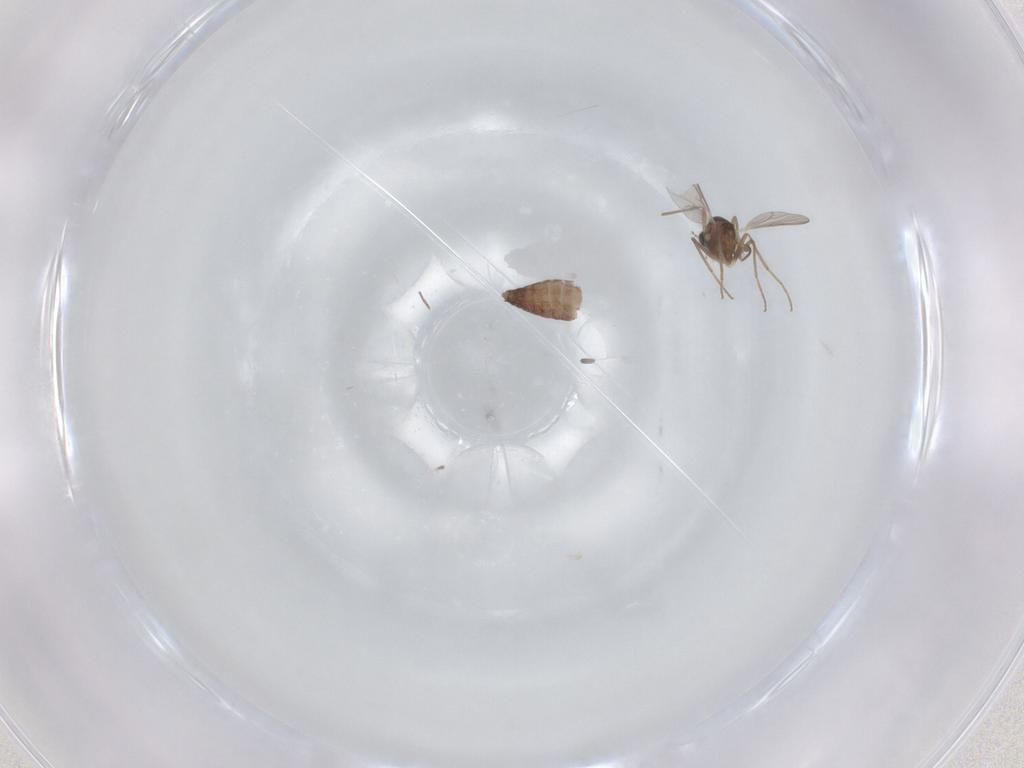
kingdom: Animalia
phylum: Arthropoda
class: Insecta
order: Diptera
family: Chironomidae
